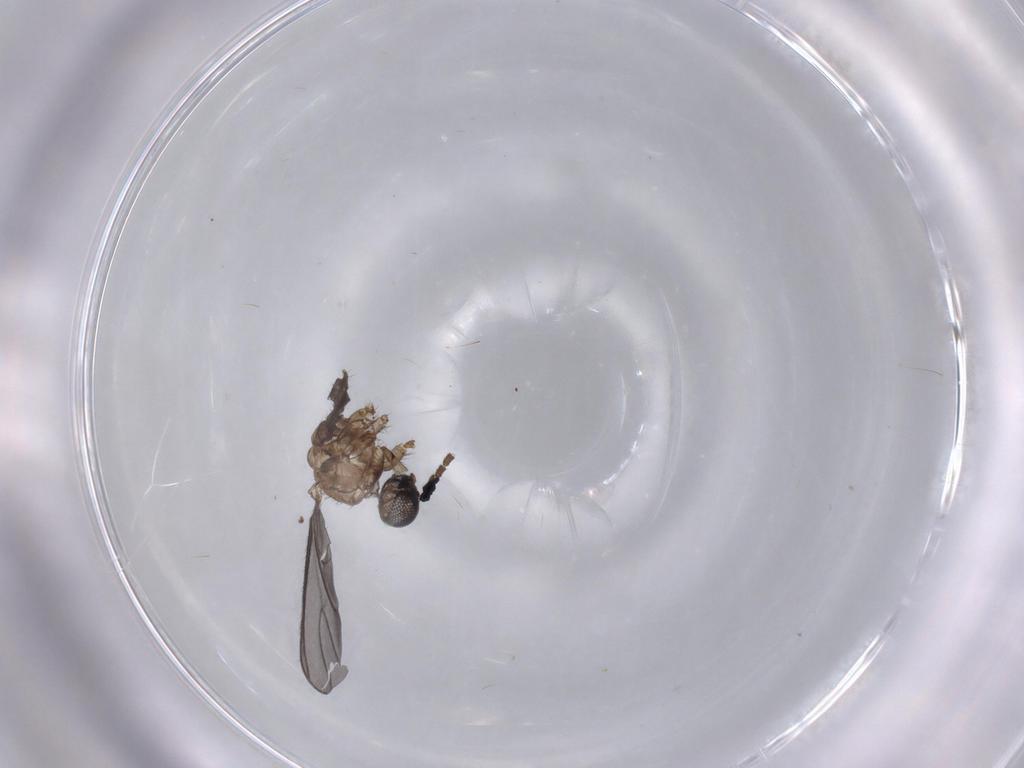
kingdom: Animalia
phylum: Arthropoda
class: Insecta
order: Diptera
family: Sciaridae
